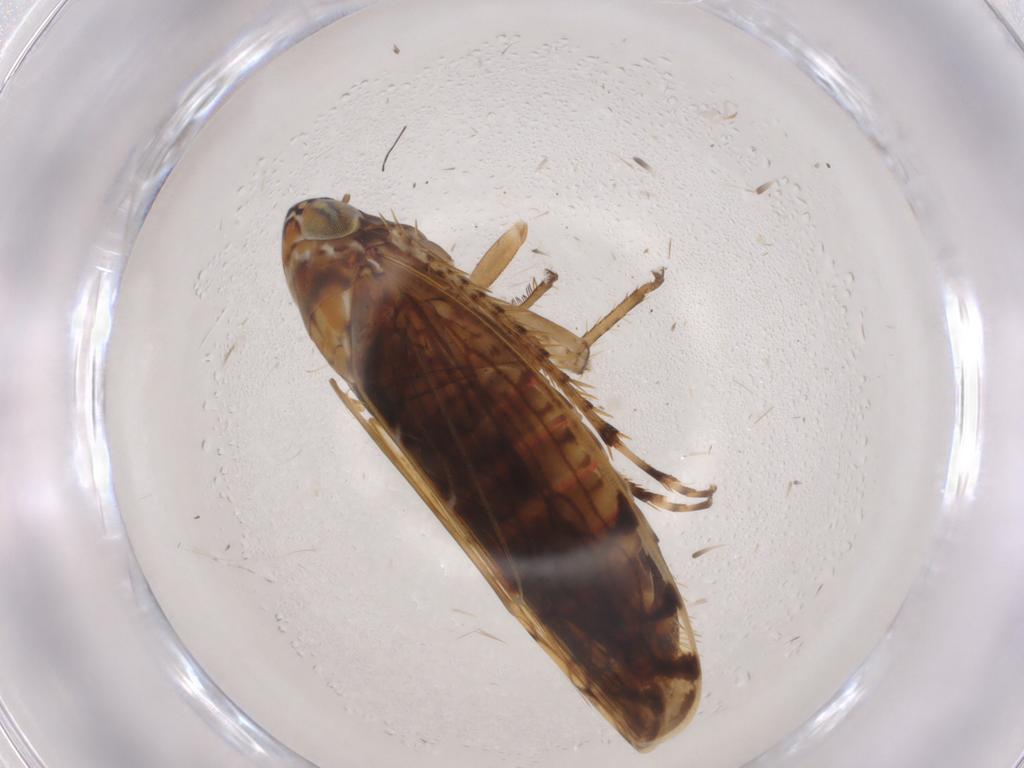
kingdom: Animalia
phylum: Arthropoda
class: Insecta
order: Hemiptera
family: Cicadellidae
